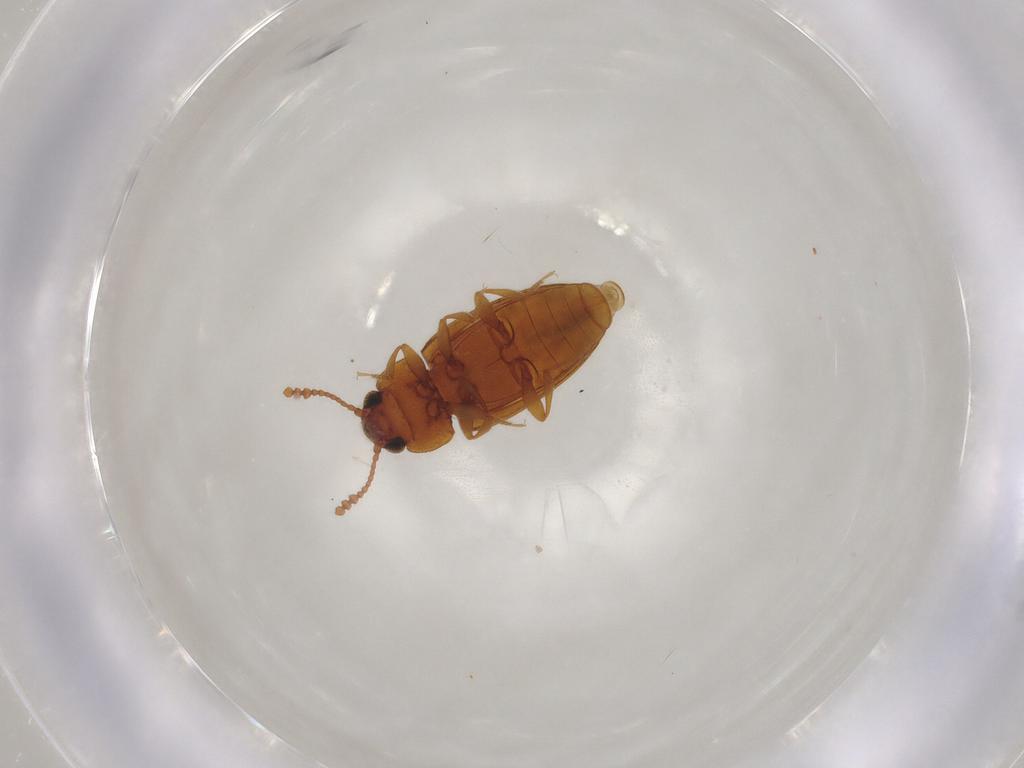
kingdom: Animalia
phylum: Arthropoda
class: Insecta
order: Coleoptera
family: Erotylidae
